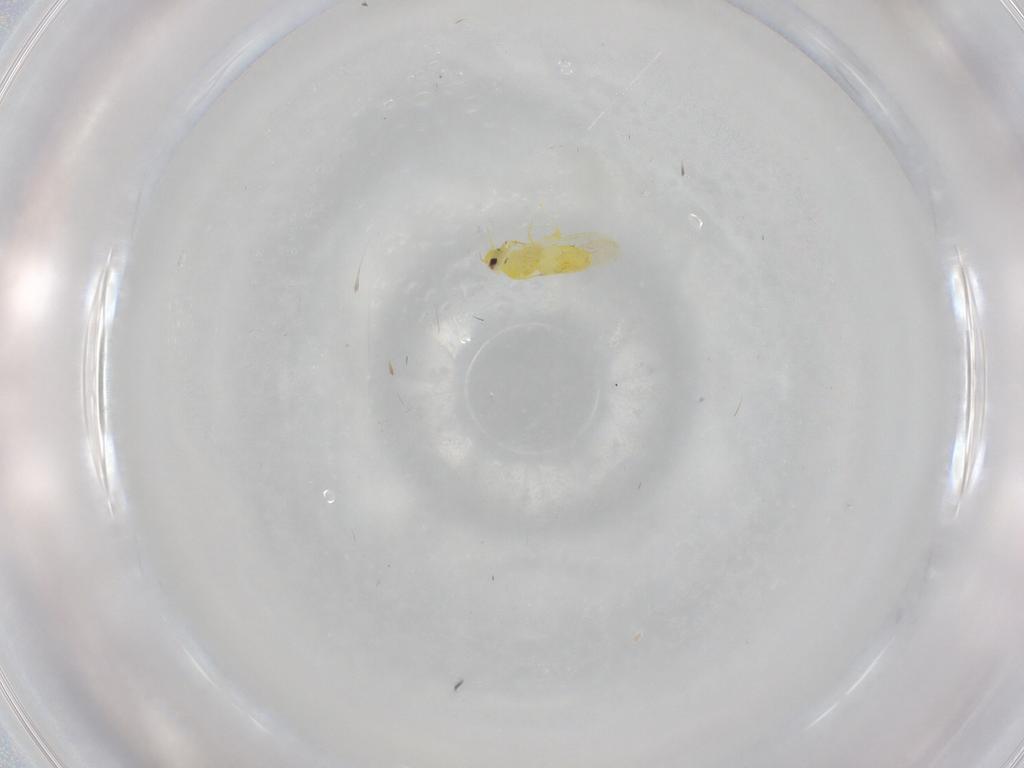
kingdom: Animalia
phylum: Arthropoda
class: Insecta
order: Hemiptera
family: Aleyrodidae
